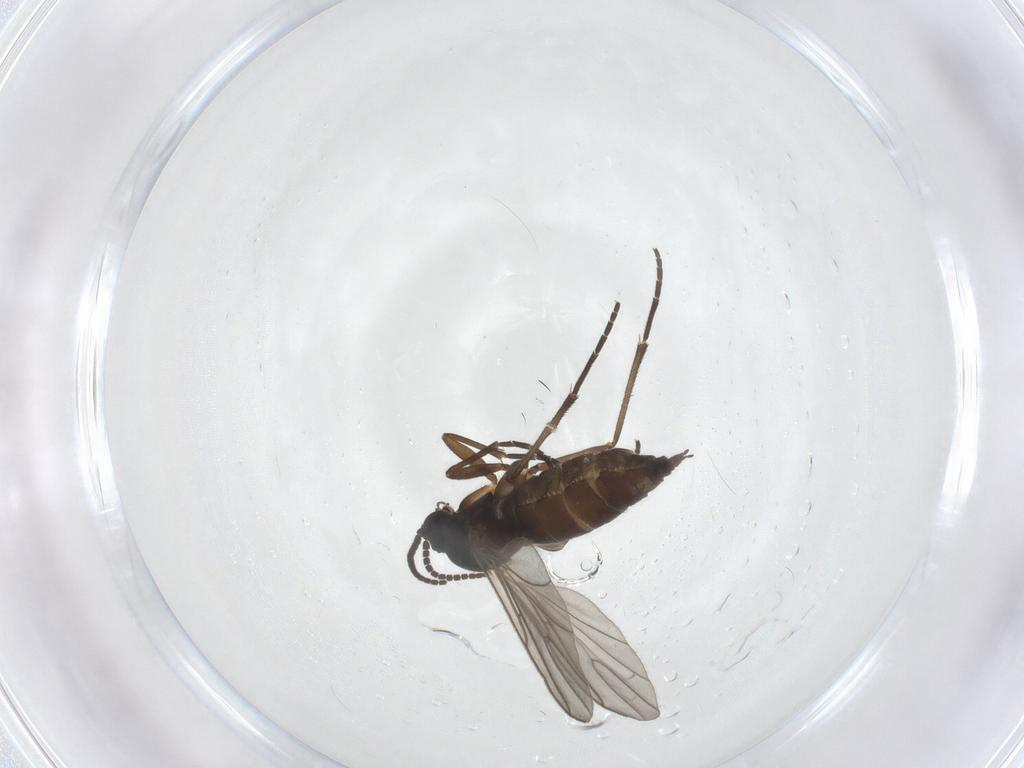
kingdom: Animalia
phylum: Arthropoda
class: Insecta
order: Diptera
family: Sciaridae
